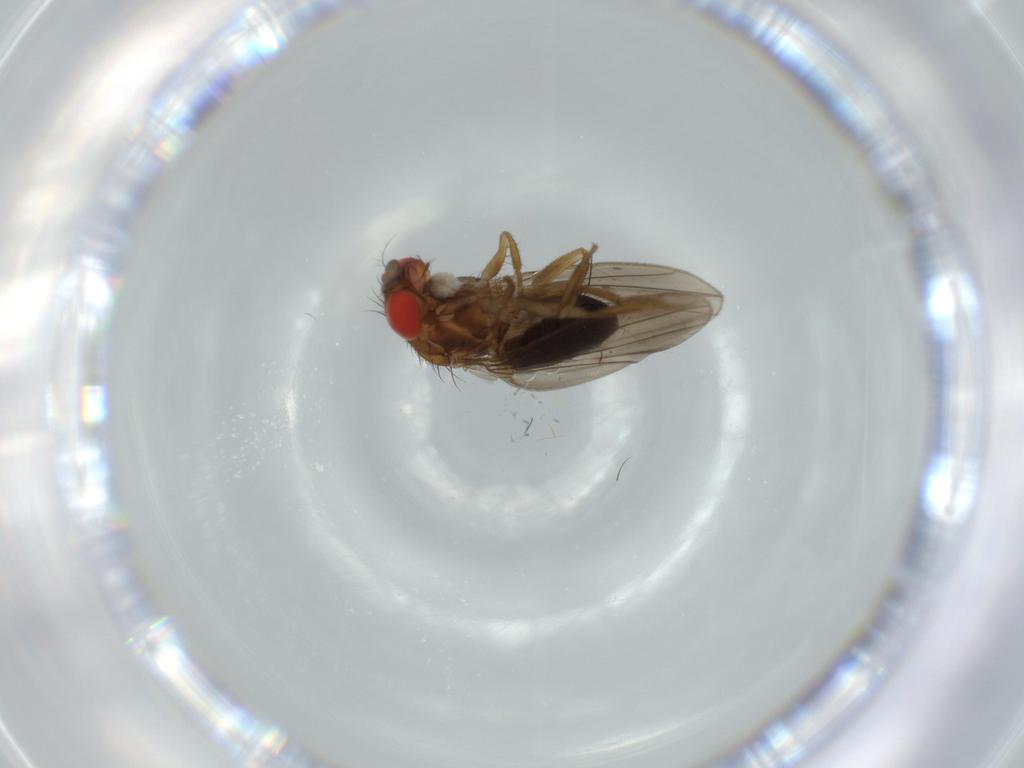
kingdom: Animalia
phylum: Arthropoda
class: Insecta
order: Diptera
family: Drosophilidae
